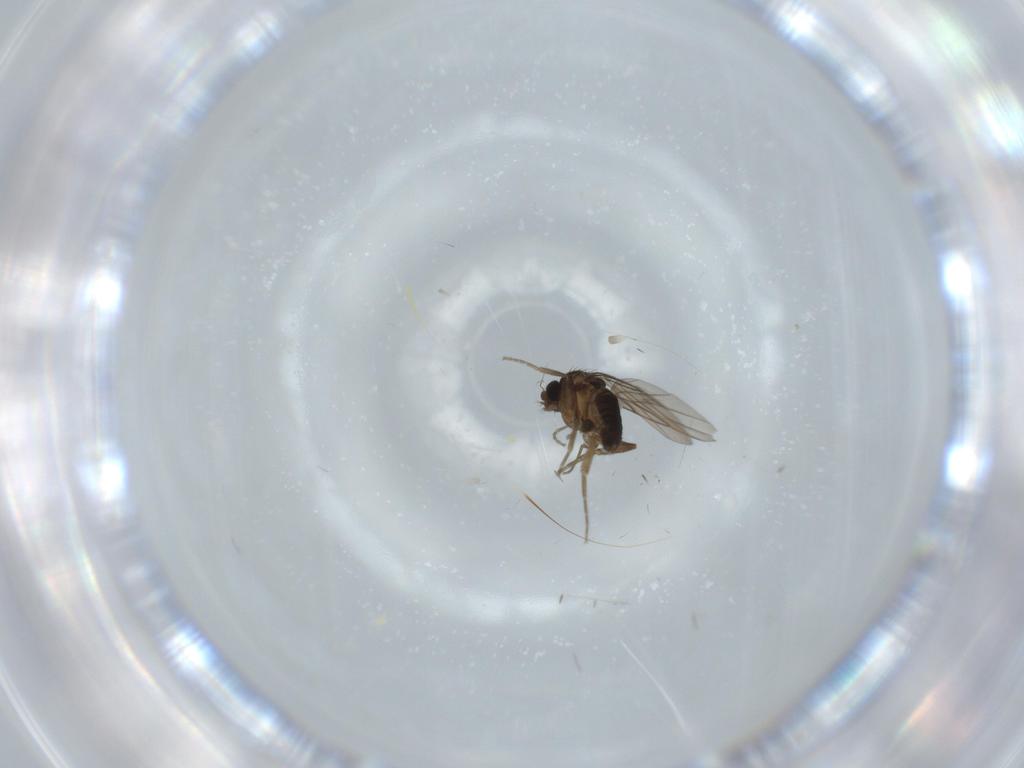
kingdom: Animalia
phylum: Arthropoda
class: Insecta
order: Diptera
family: Phoridae
